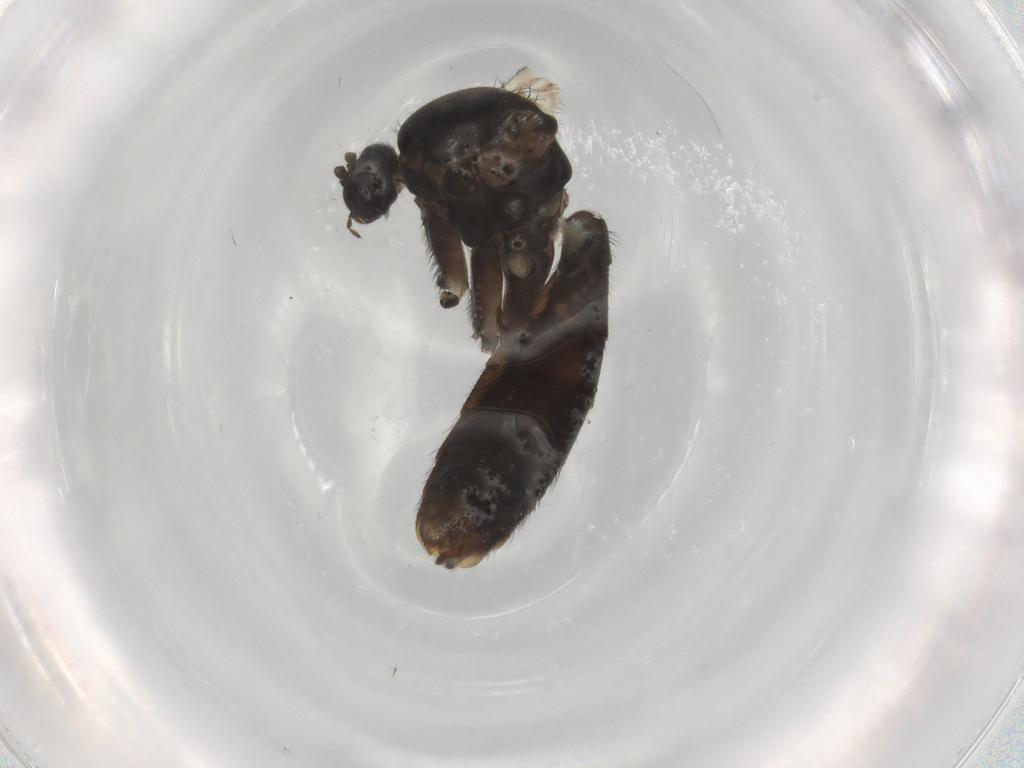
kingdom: Animalia
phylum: Arthropoda
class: Insecta
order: Diptera
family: Keroplatidae
